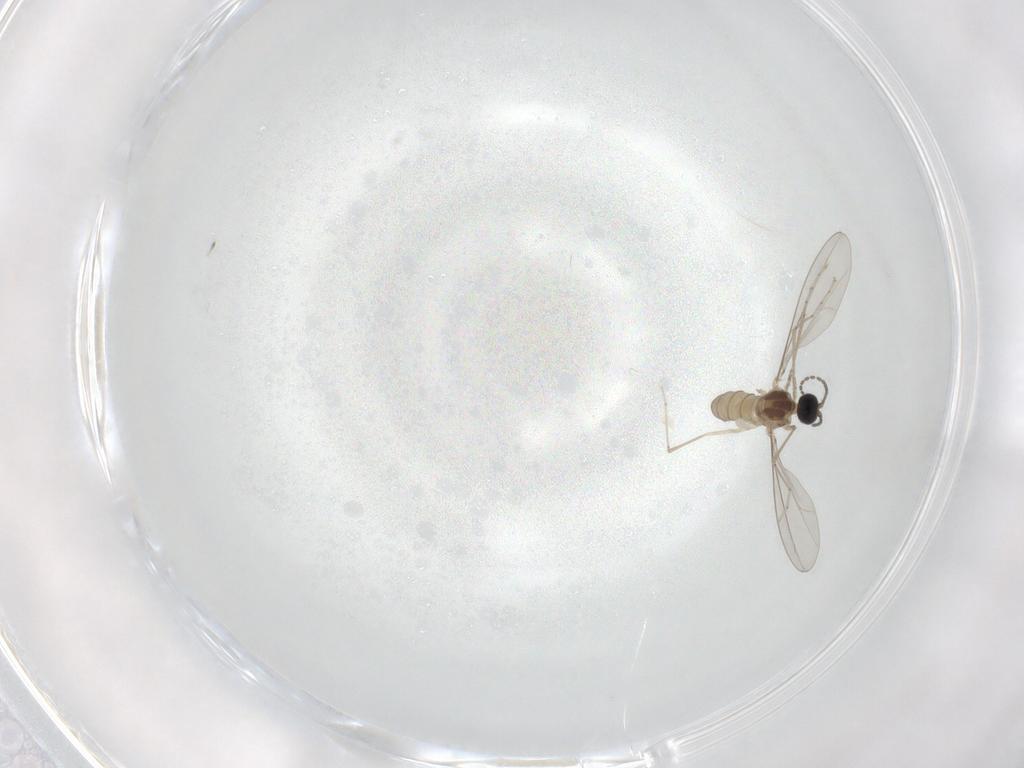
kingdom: Animalia
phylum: Arthropoda
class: Insecta
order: Diptera
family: Cecidomyiidae
